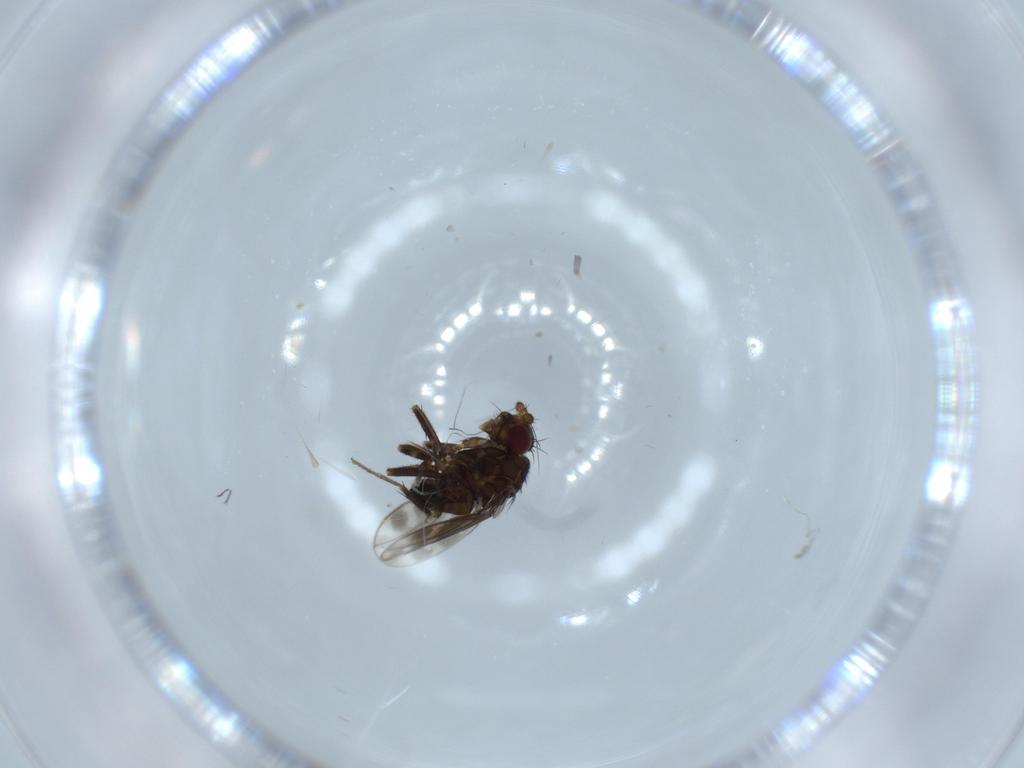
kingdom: Animalia
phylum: Arthropoda
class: Insecta
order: Diptera
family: Sphaeroceridae
